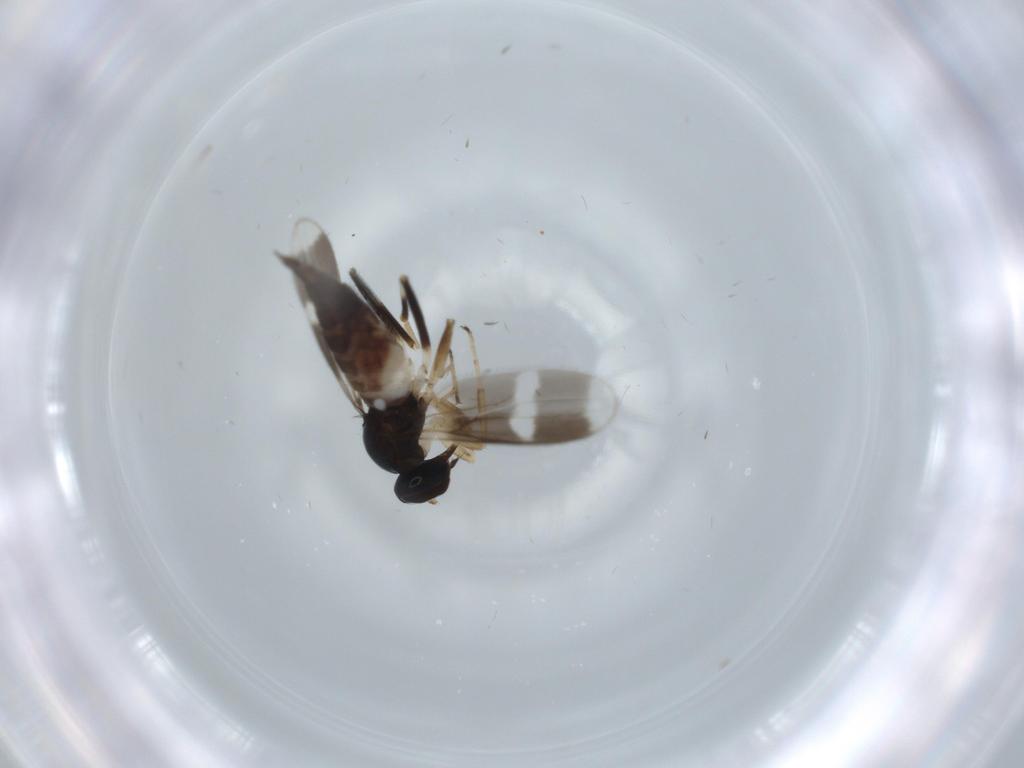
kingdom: Animalia
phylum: Arthropoda
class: Insecta
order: Diptera
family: Hybotidae
